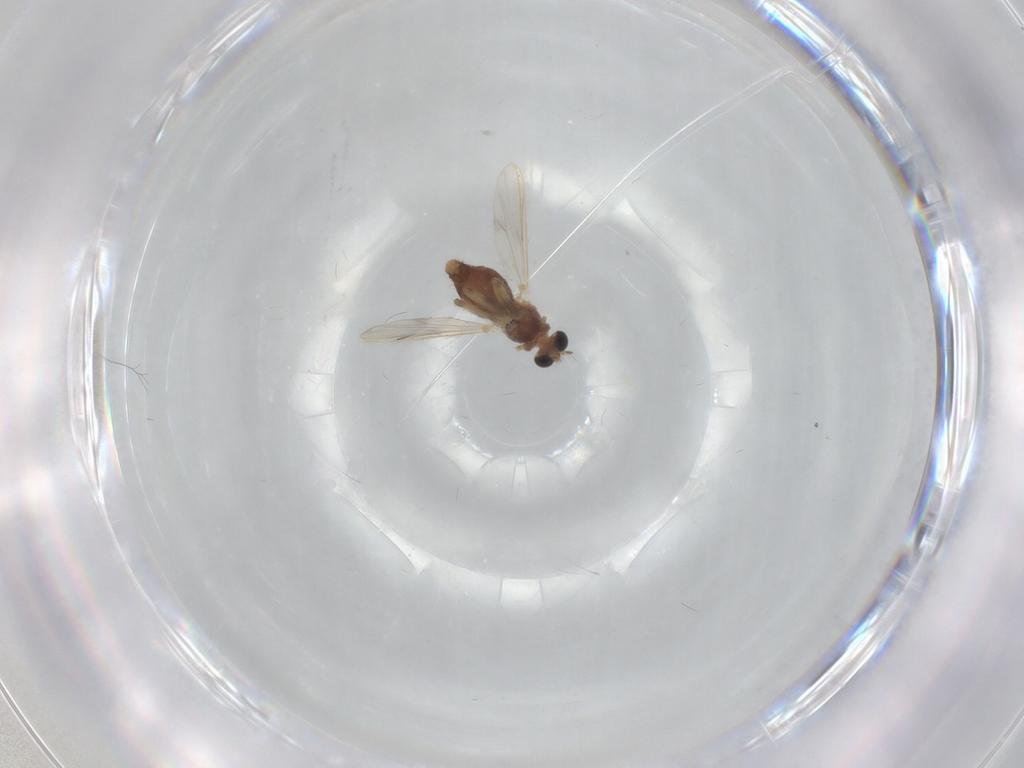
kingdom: Animalia
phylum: Arthropoda
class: Insecta
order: Diptera
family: Chironomidae
